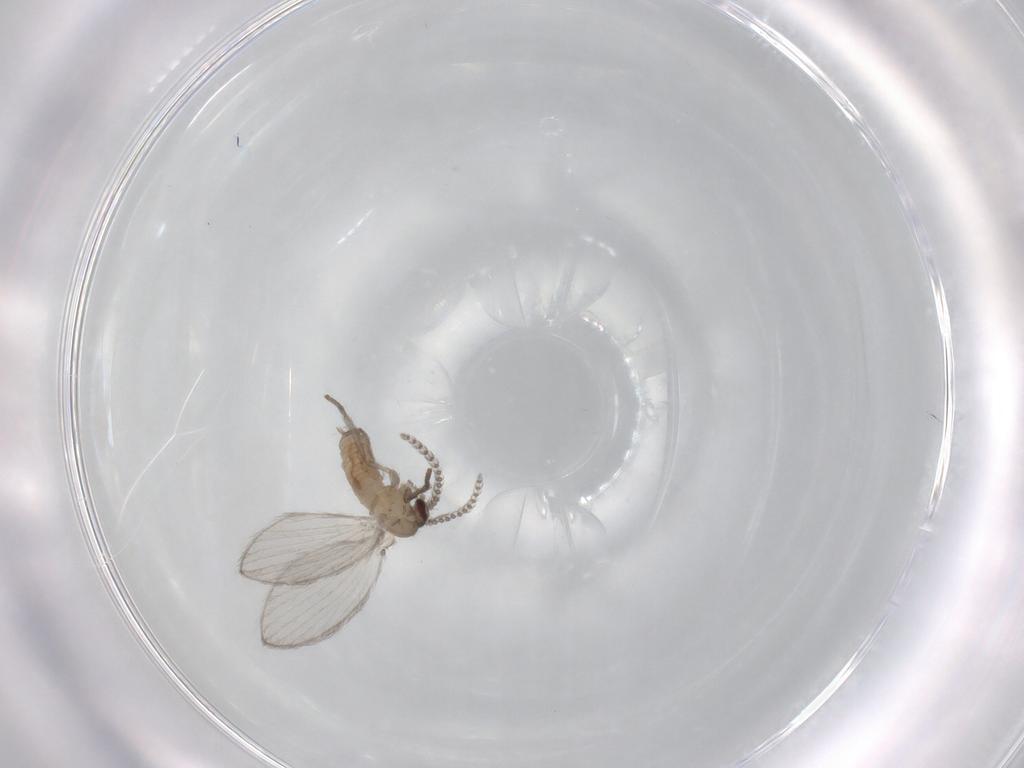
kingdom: Animalia
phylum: Arthropoda
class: Insecta
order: Diptera
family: Psychodidae
